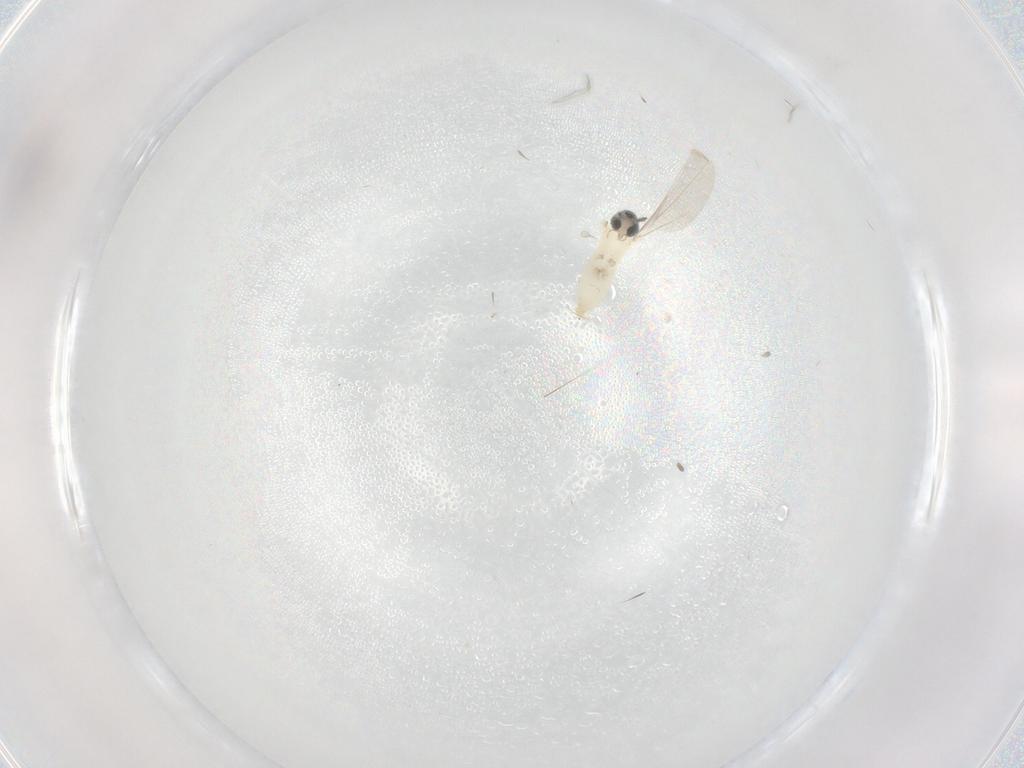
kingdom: Animalia
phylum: Arthropoda
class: Insecta
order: Diptera
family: Cecidomyiidae
